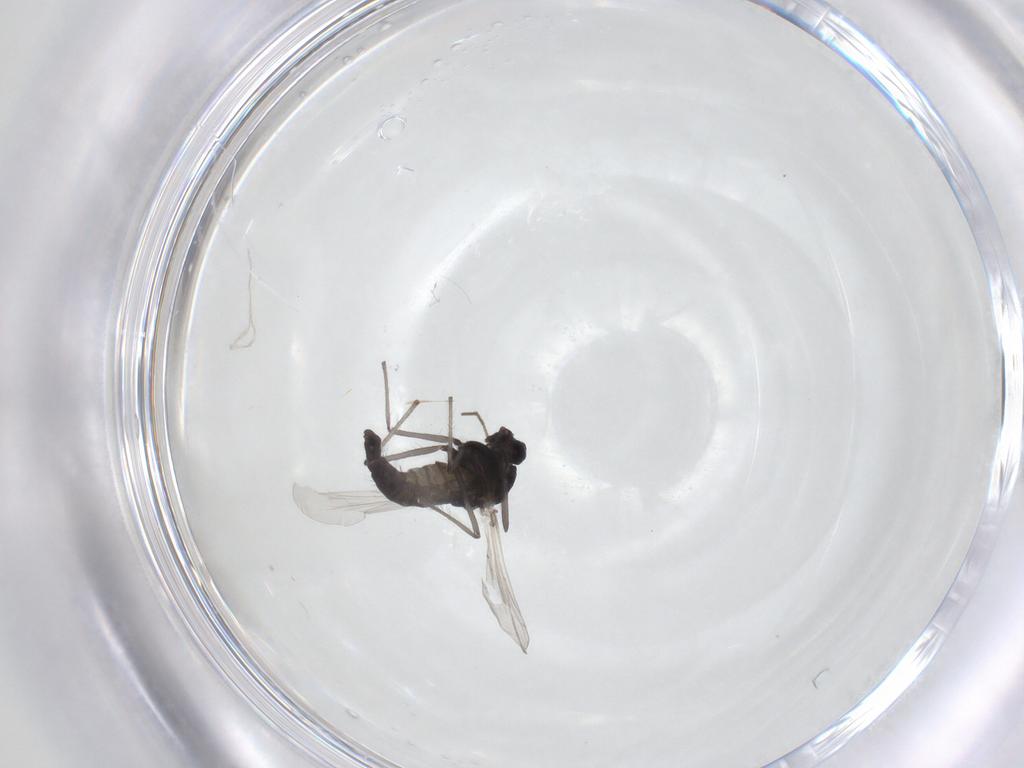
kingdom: Animalia
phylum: Arthropoda
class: Insecta
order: Diptera
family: Chironomidae
